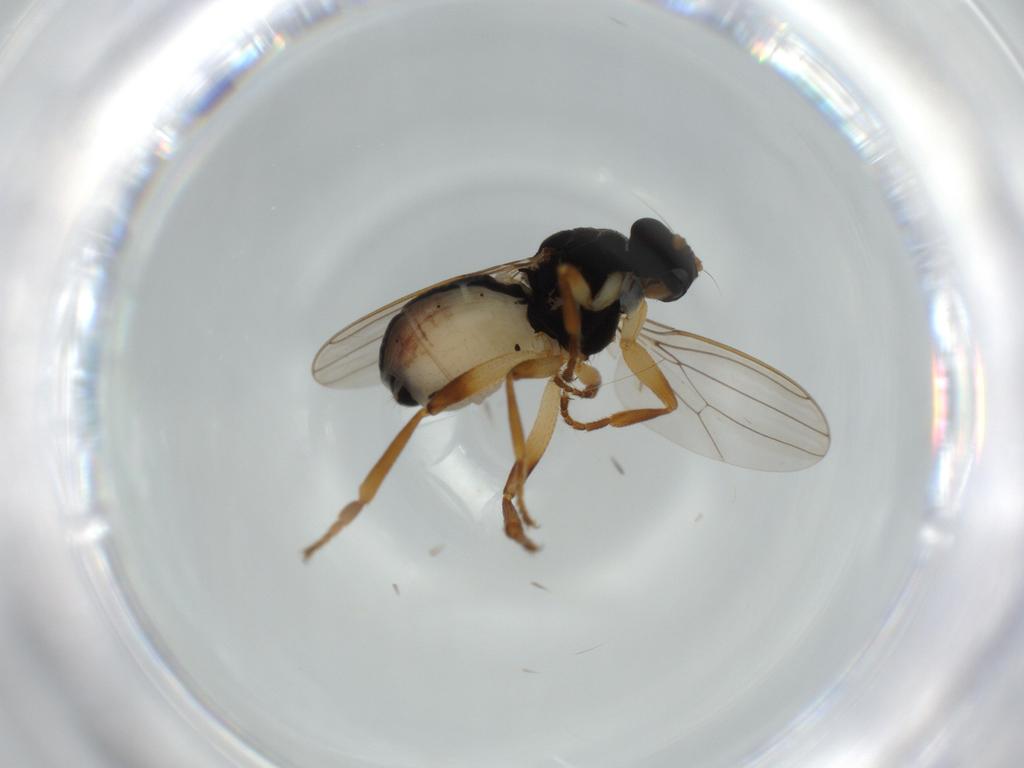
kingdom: Animalia
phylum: Arthropoda
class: Insecta
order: Diptera
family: Sphaeroceridae
